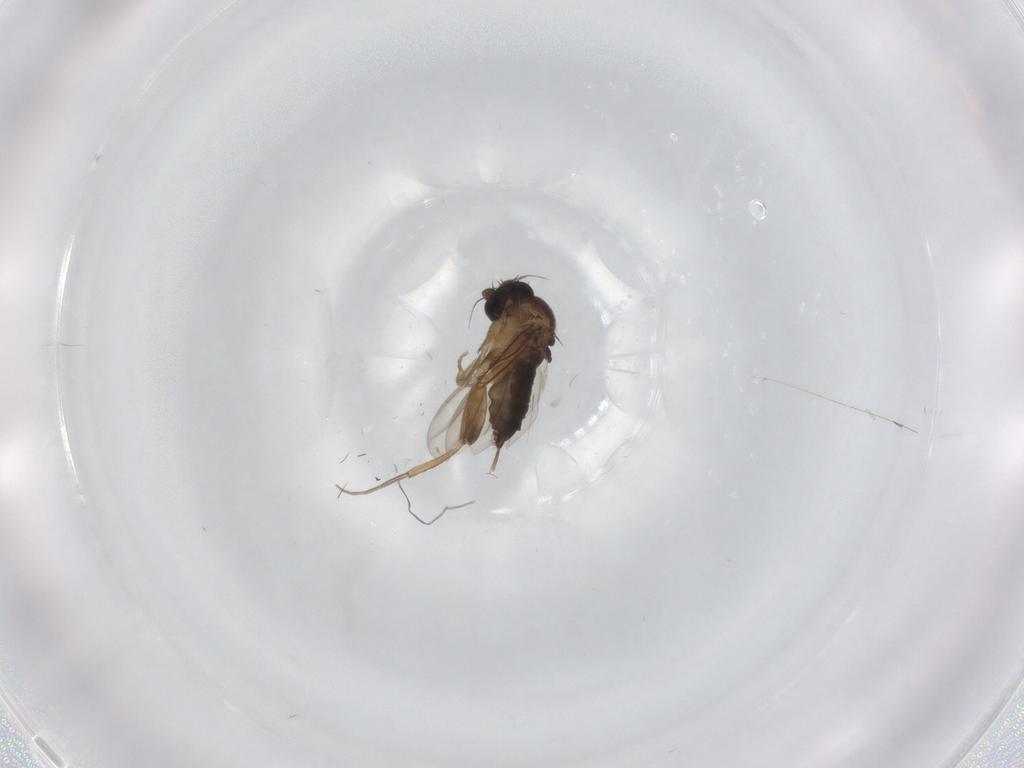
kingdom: Animalia
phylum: Arthropoda
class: Insecta
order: Diptera
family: Phoridae
